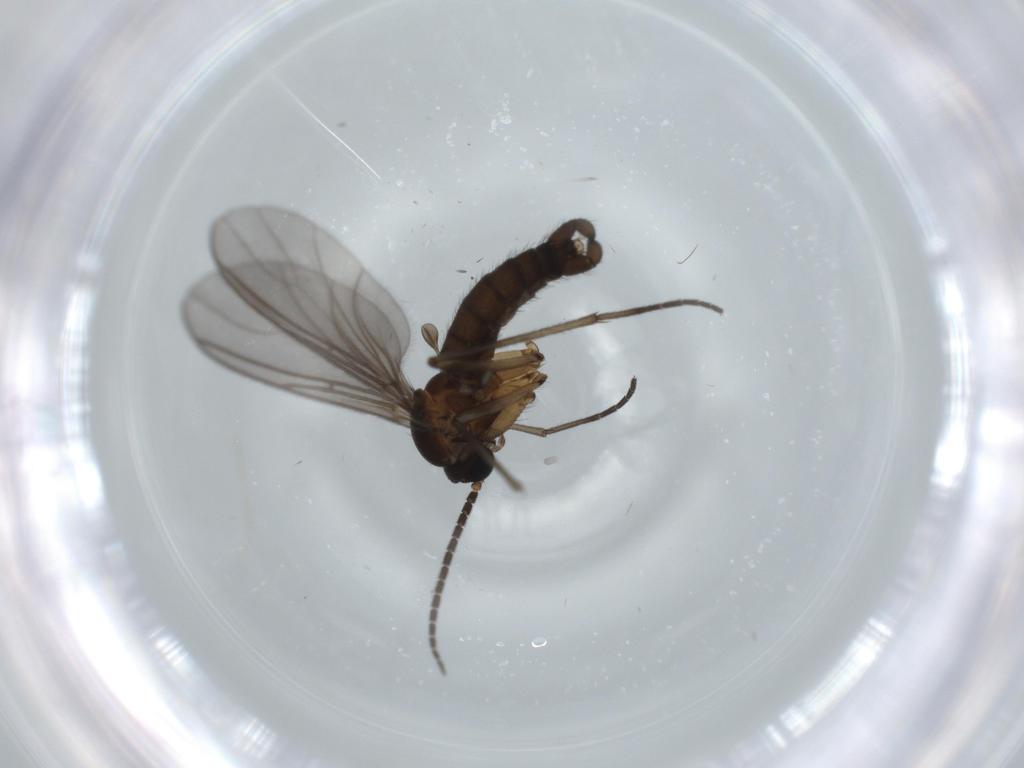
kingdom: Animalia
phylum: Arthropoda
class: Insecta
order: Diptera
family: Sciaridae
